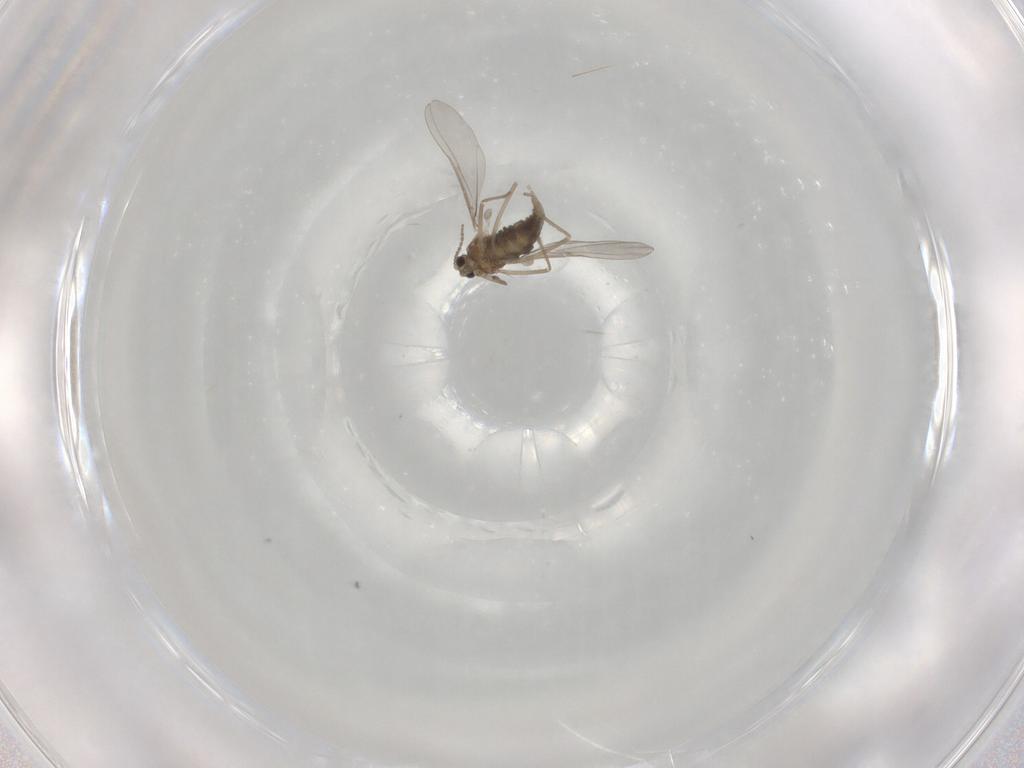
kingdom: Animalia
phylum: Arthropoda
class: Insecta
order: Diptera
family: Cecidomyiidae
